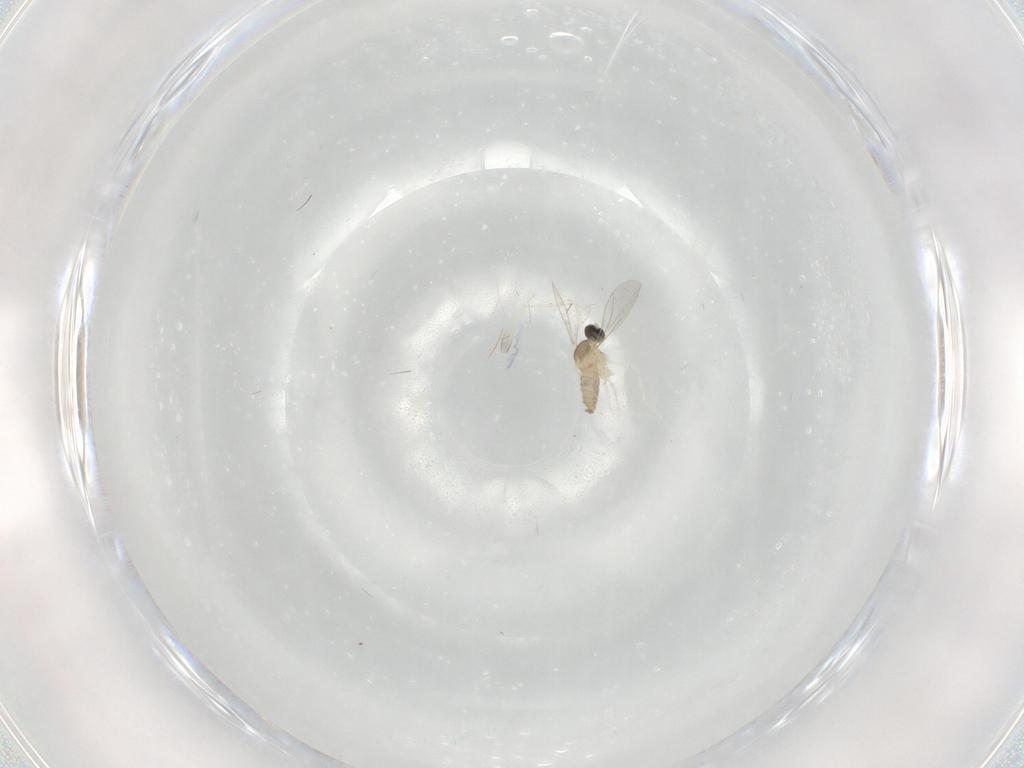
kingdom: Animalia
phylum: Arthropoda
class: Insecta
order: Diptera
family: Cecidomyiidae
